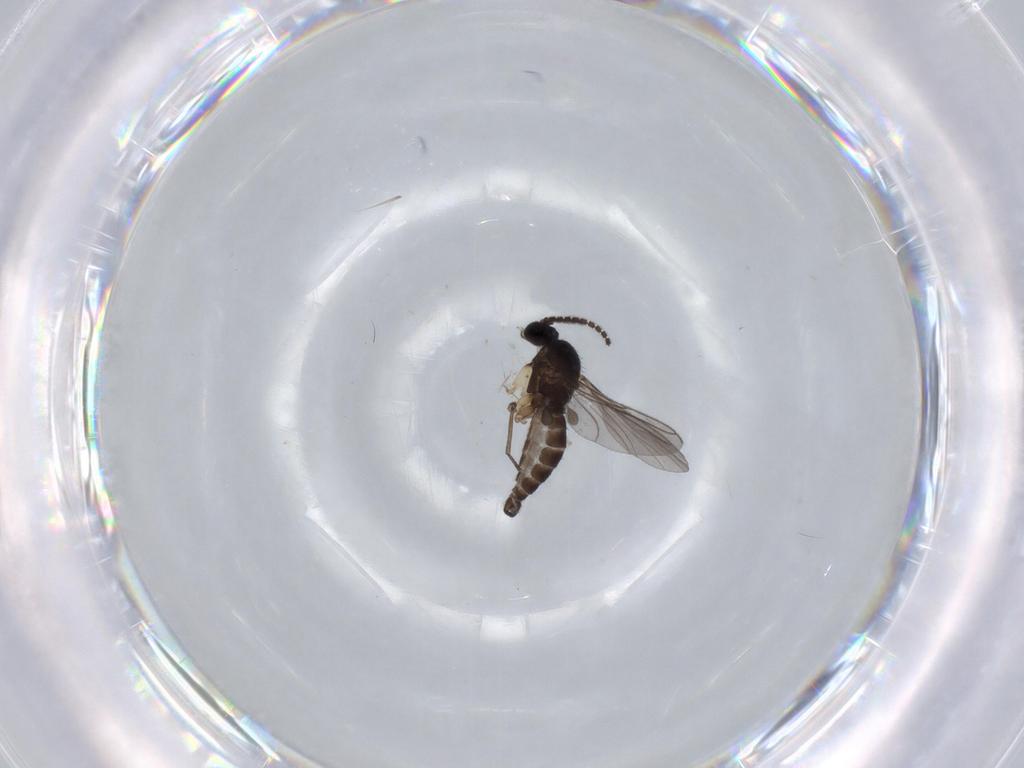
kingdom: Animalia
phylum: Arthropoda
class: Insecta
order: Diptera
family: Sciaridae
